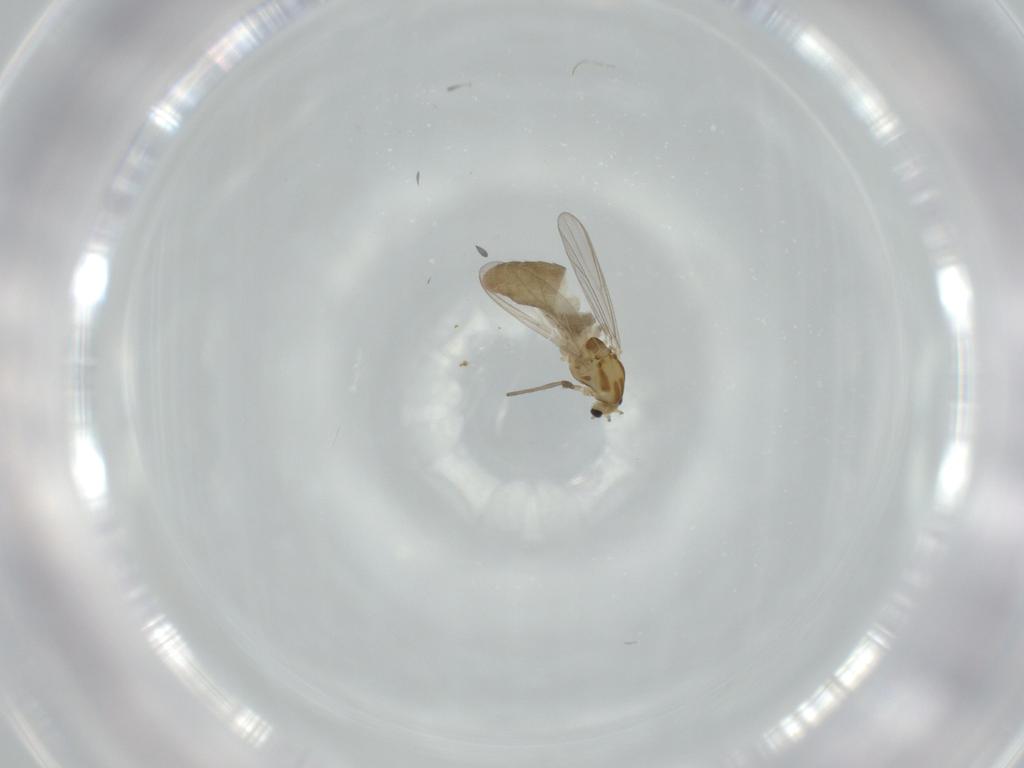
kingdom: Animalia
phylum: Arthropoda
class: Insecta
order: Diptera
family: Chironomidae
